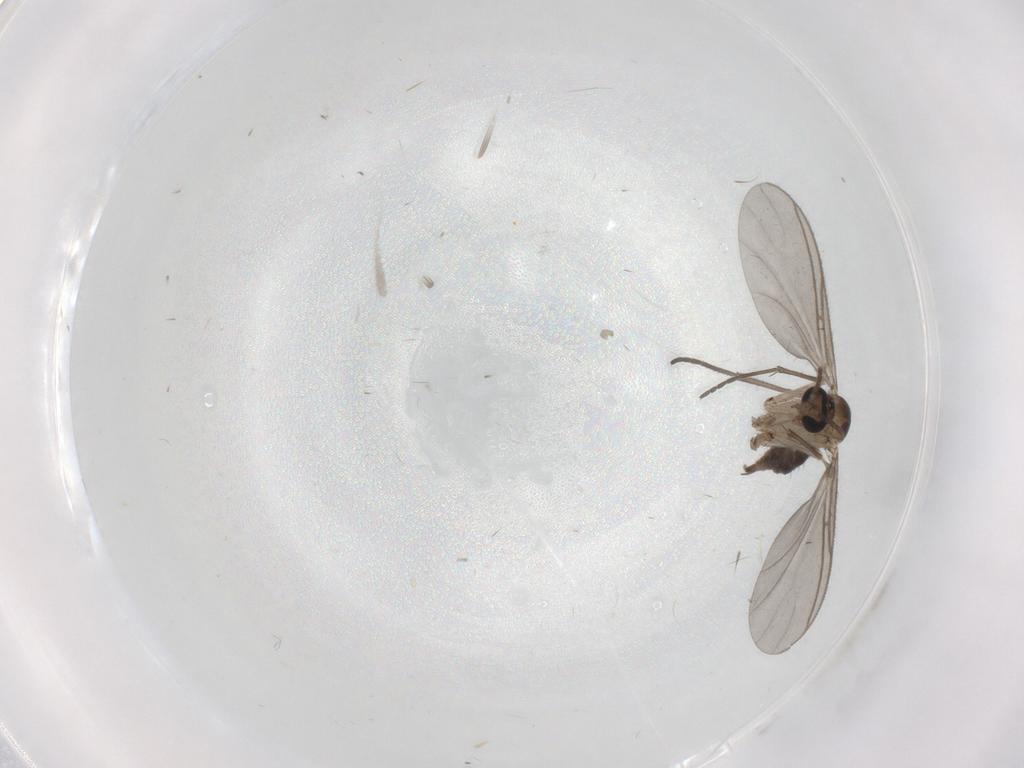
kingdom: Animalia
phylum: Arthropoda
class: Insecta
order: Diptera
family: Sciaridae
